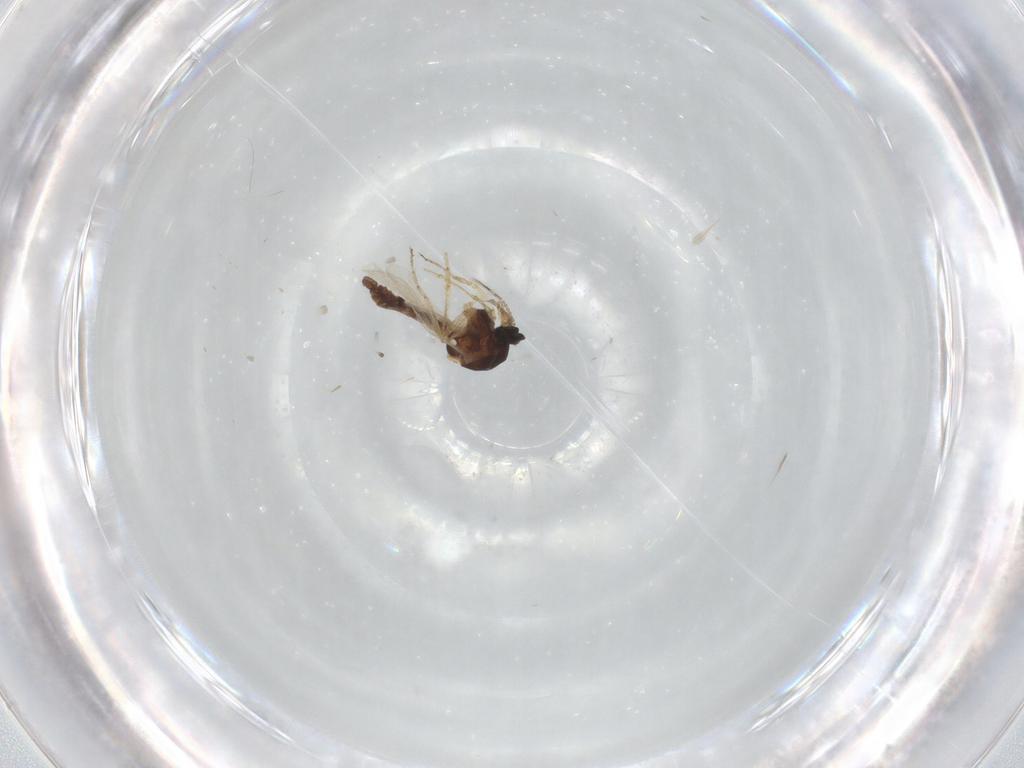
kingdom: Animalia
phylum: Arthropoda
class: Insecta
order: Diptera
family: Ceratopogonidae
